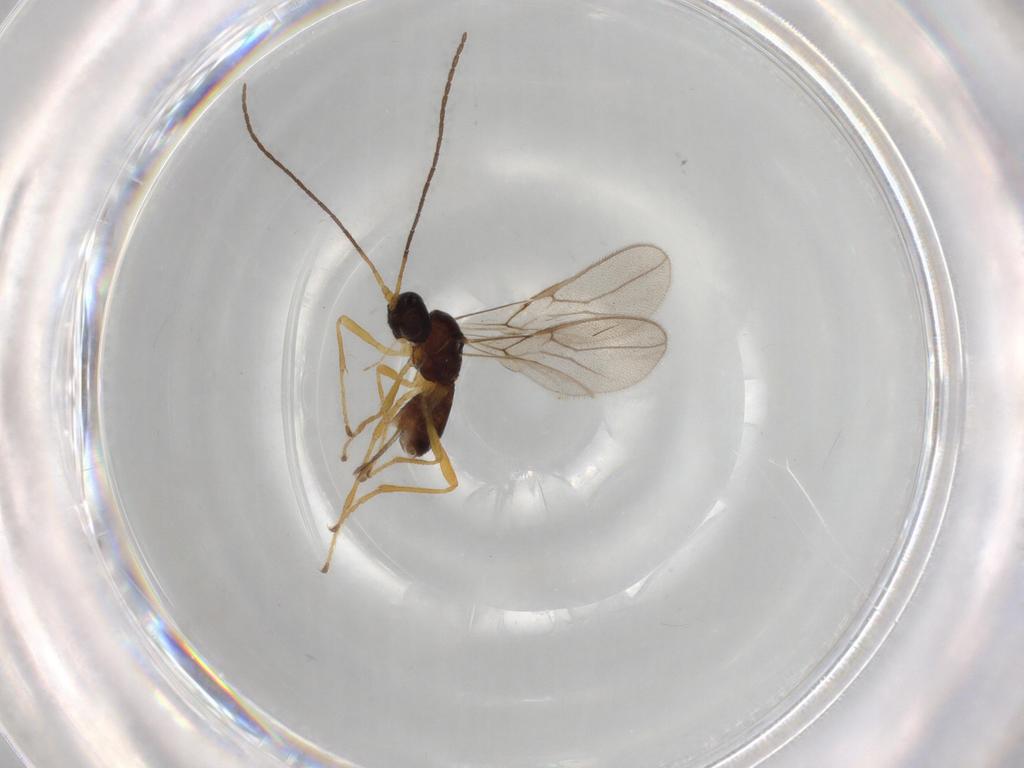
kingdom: Animalia
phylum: Arthropoda
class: Insecta
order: Hymenoptera
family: Braconidae
